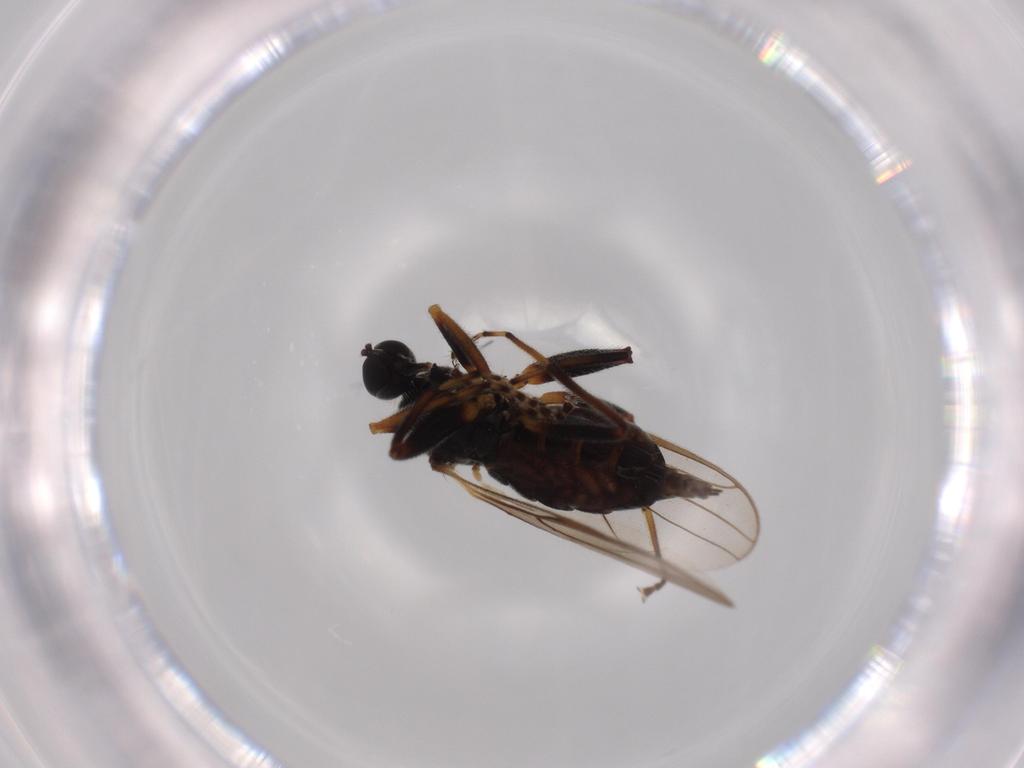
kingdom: Animalia
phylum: Arthropoda
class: Insecta
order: Diptera
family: Hybotidae
